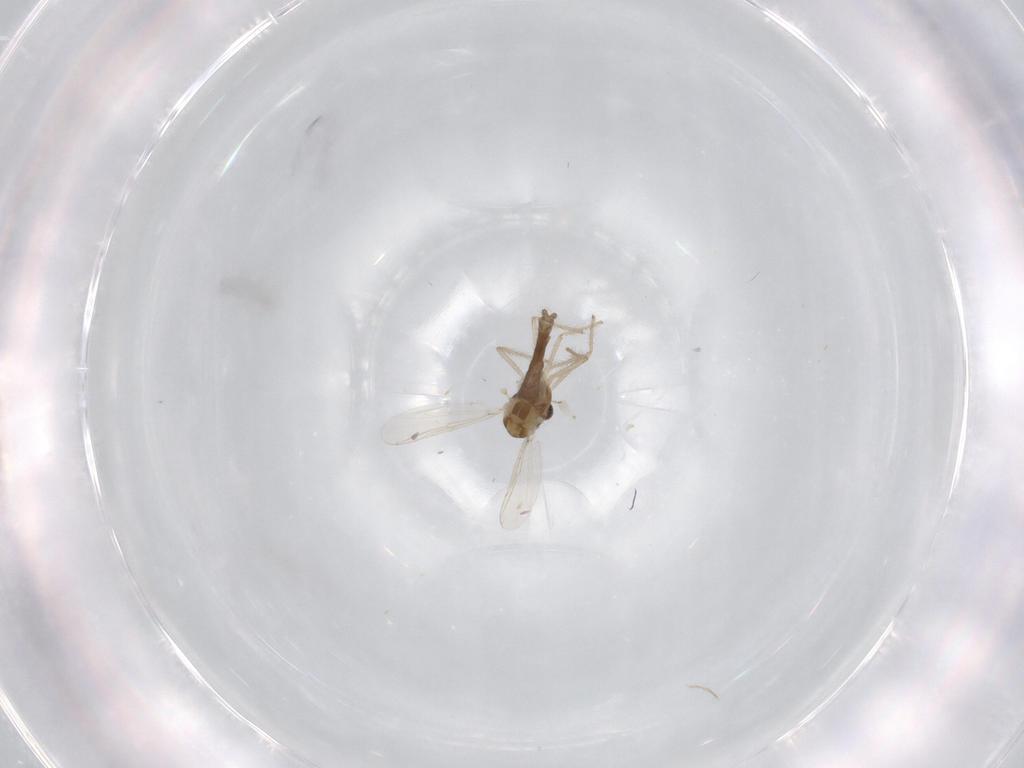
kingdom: Animalia
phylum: Arthropoda
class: Insecta
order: Diptera
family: Chironomidae
